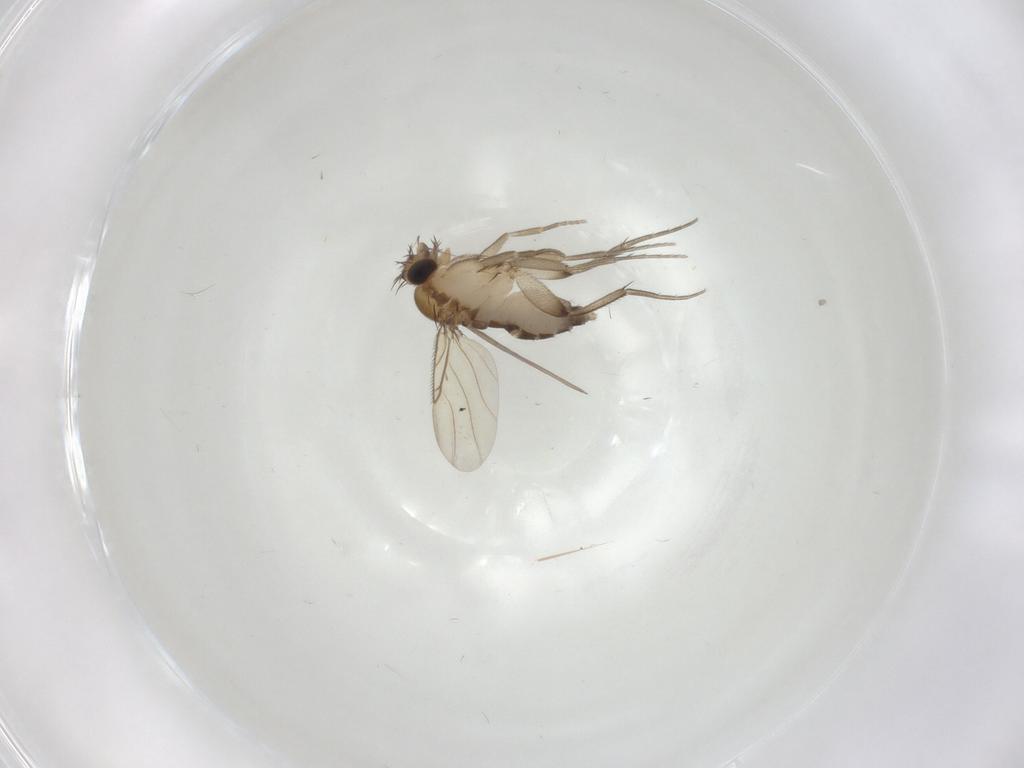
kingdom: Animalia
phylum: Arthropoda
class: Insecta
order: Diptera
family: Phoridae
